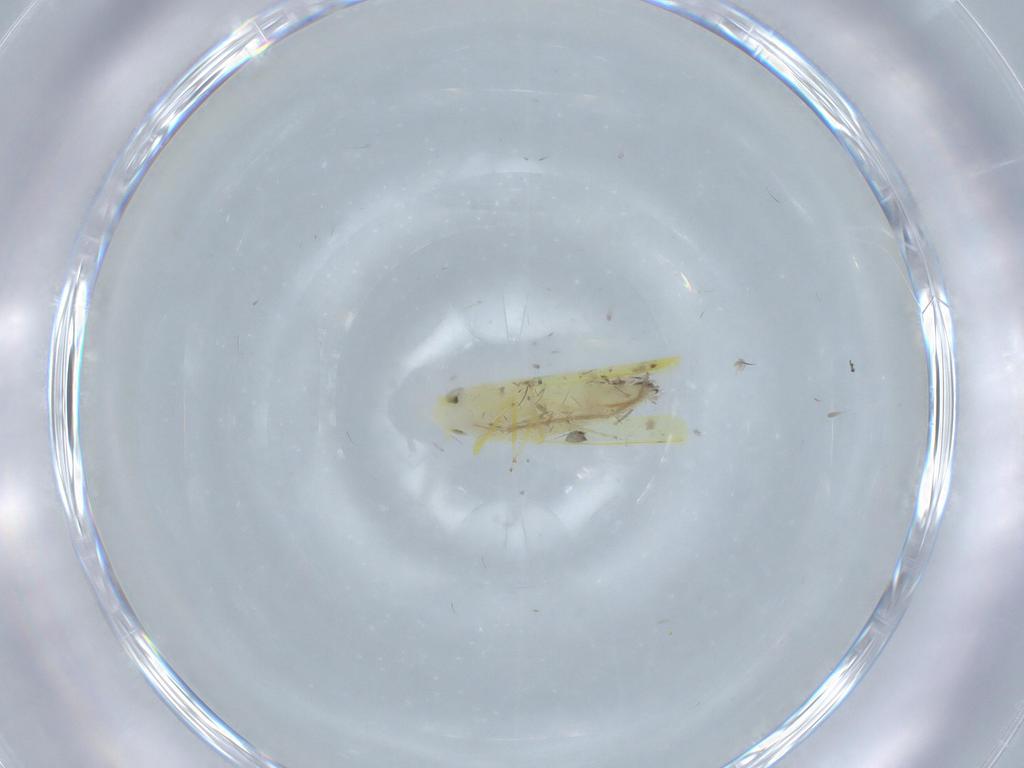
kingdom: Animalia
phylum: Arthropoda
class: Insecta
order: Hemiptera
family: Cicadellidae
